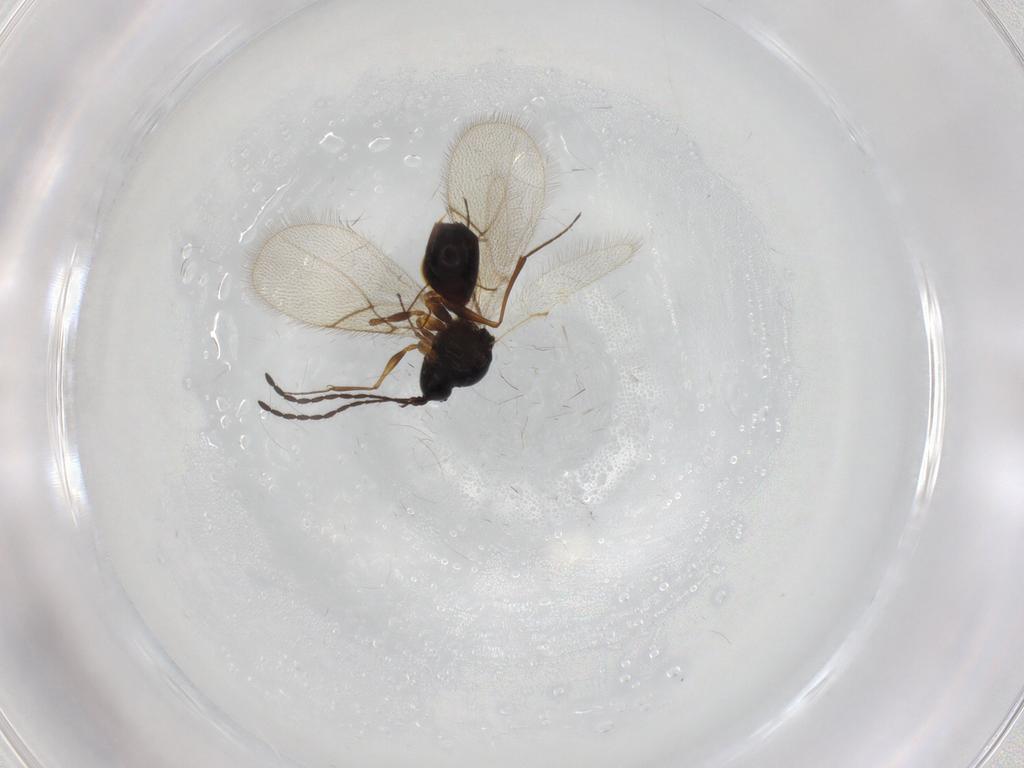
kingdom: Animalia
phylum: Arthropoda
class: Insecta
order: Hymenoptera
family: Figitidae
